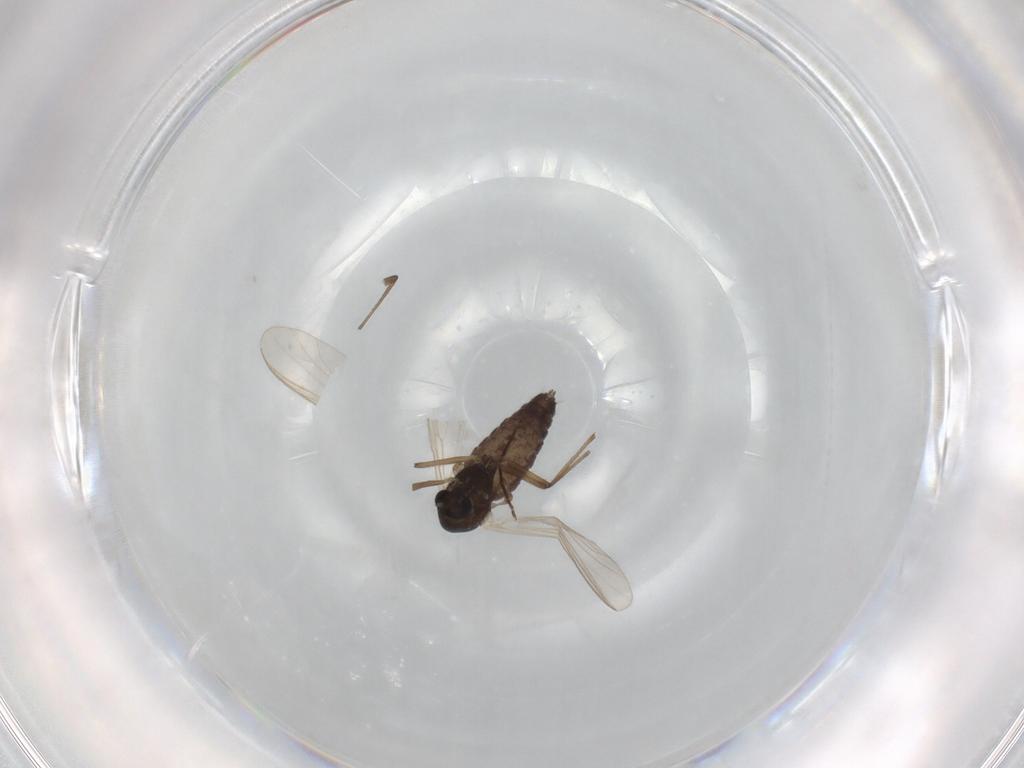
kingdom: Animalia
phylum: Arthropoda
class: Insecta
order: Diptera
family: Chironomidae
